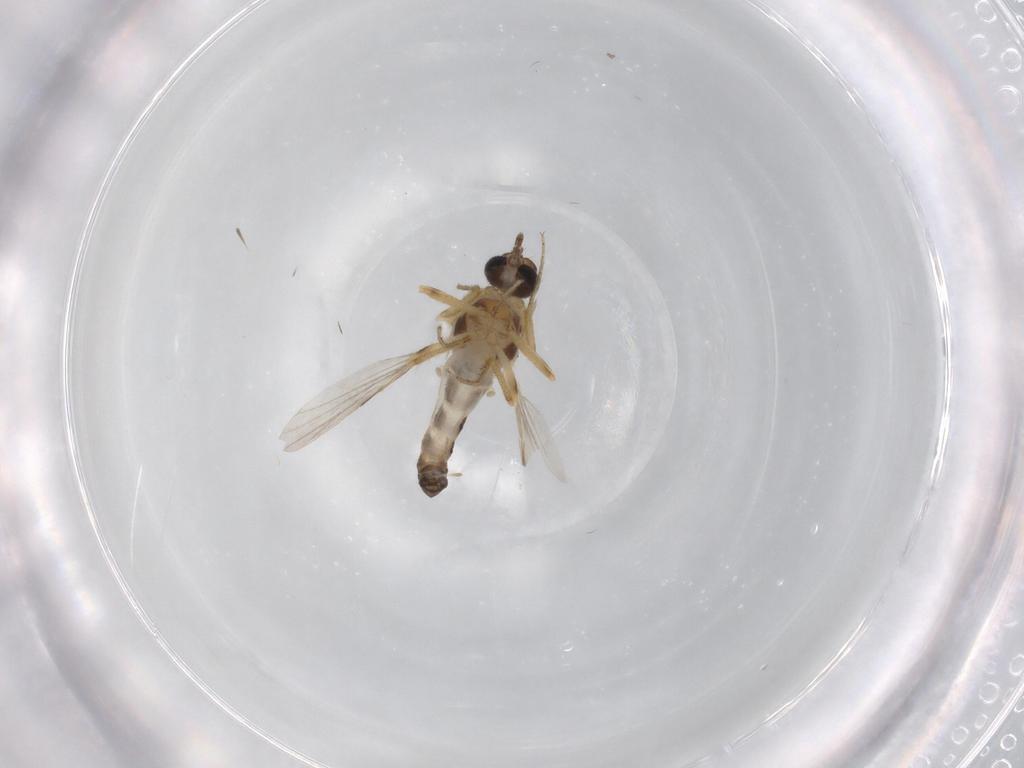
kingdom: Animalia
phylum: Arthropoda
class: Insecta
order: Diptera
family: Ceratopogonidae
